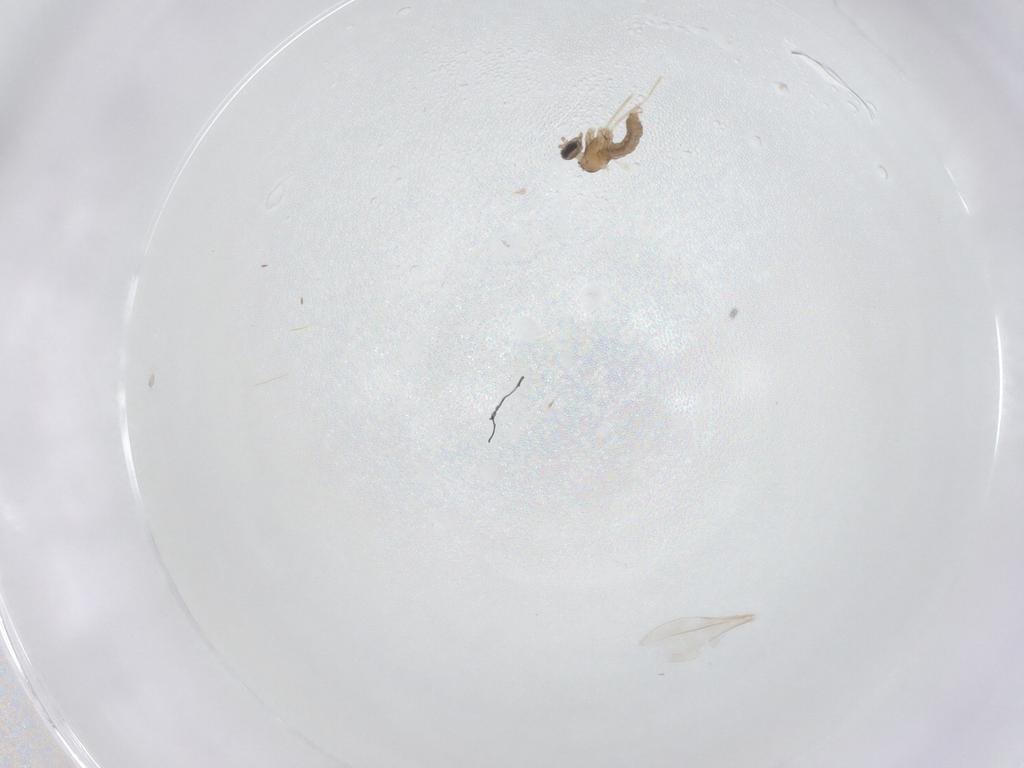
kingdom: Animalia
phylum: Arthropoda
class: Insecta
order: Diptera
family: Cecidomyiidae
